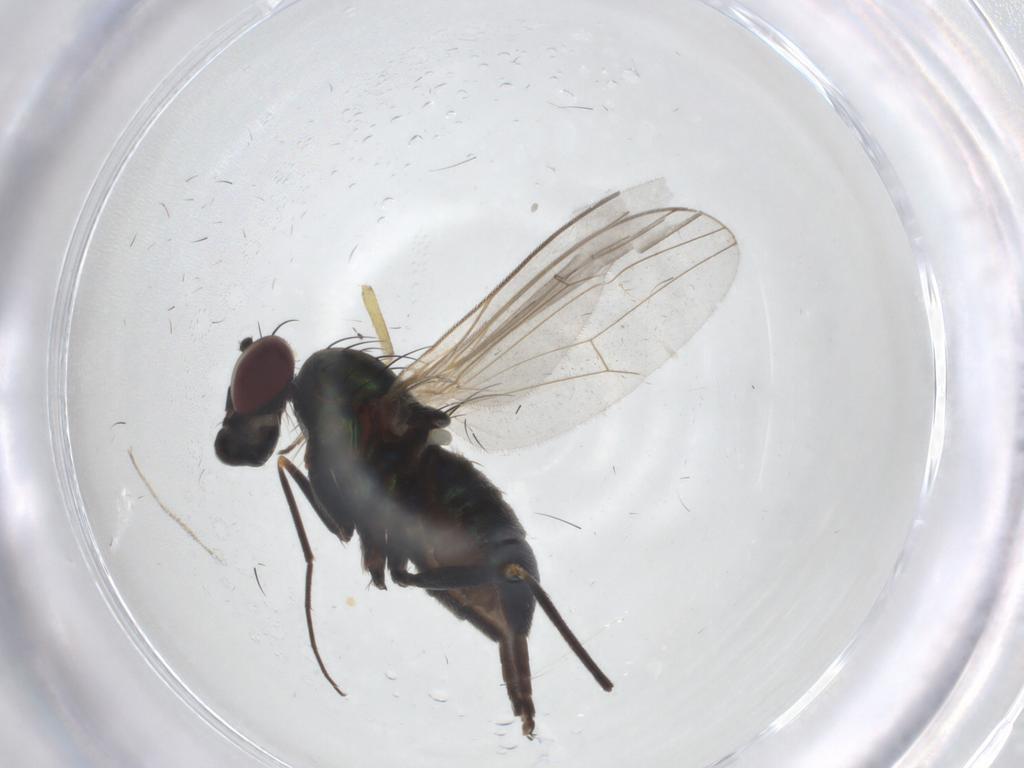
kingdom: Animalia
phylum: Arthropoda
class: Insecta
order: Diptera
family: Dolichopodidae
